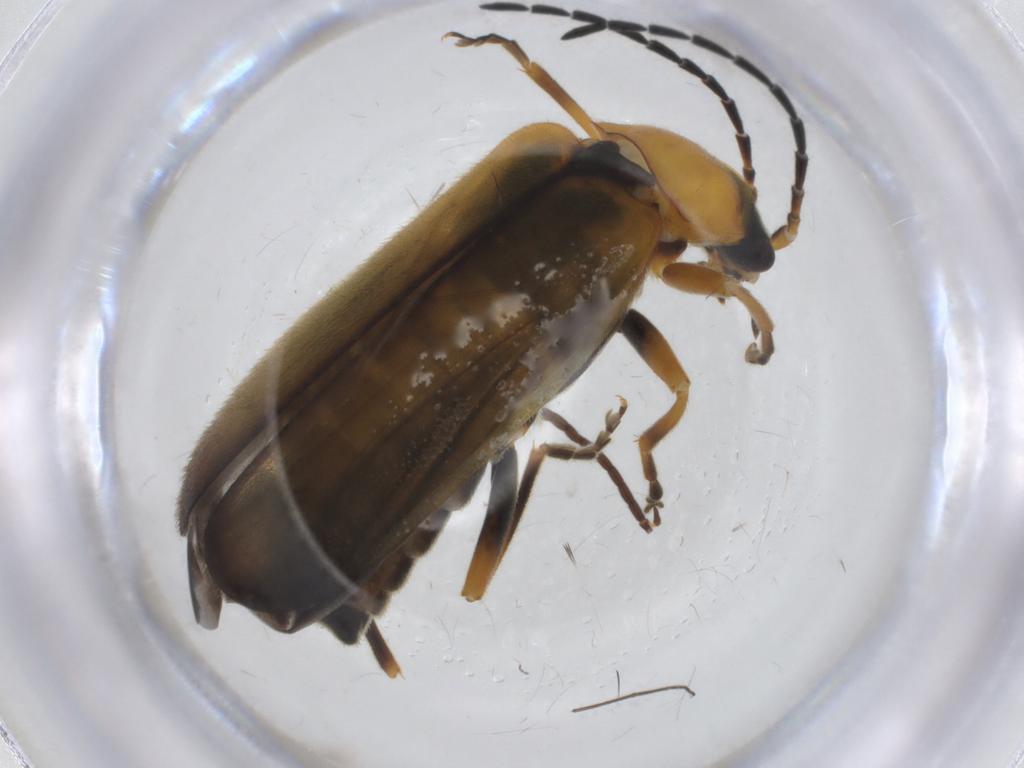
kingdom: Animalia
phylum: Arthropoda
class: Insecta
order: Coleoptera
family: Cantharidae
